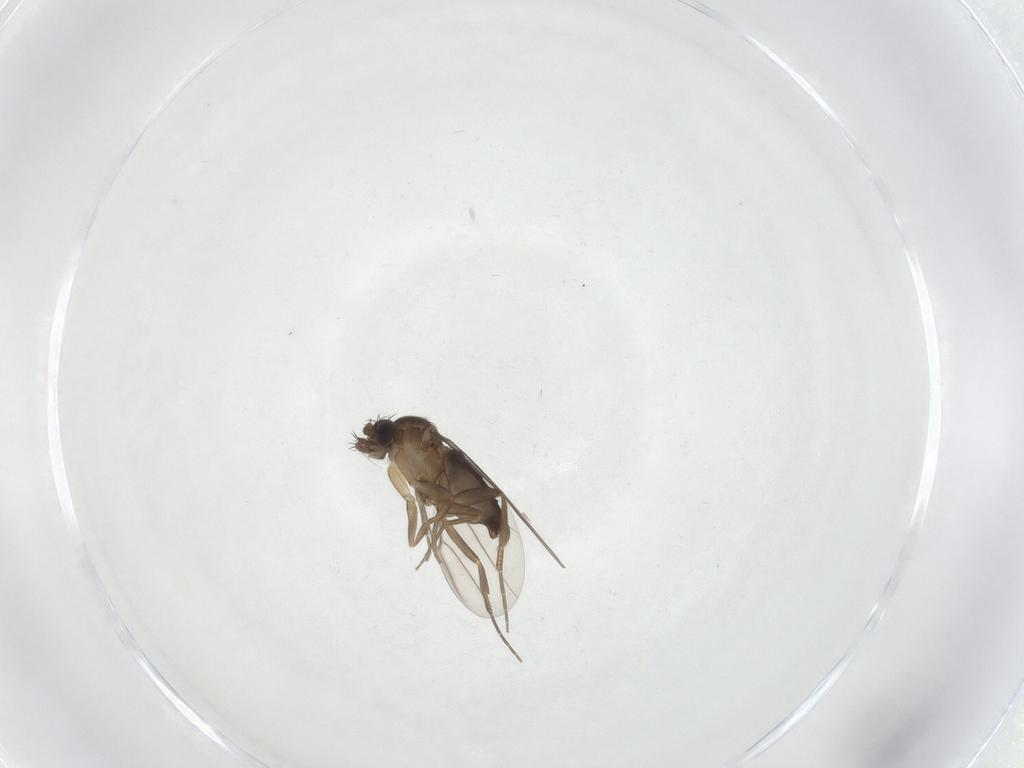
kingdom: Animalia
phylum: Arthropoda
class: Insecta
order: Diptera
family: Phoridae
